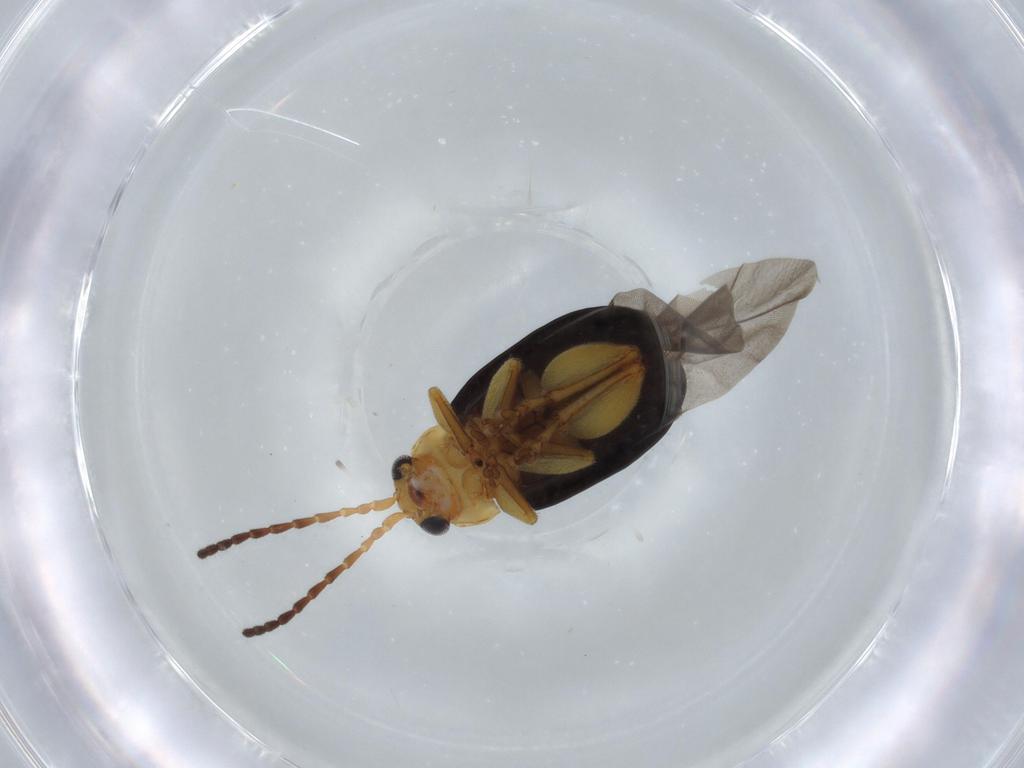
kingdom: Animalia
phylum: Arthropoda
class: Insecta
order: Coleoptera
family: Chrysomelidae
